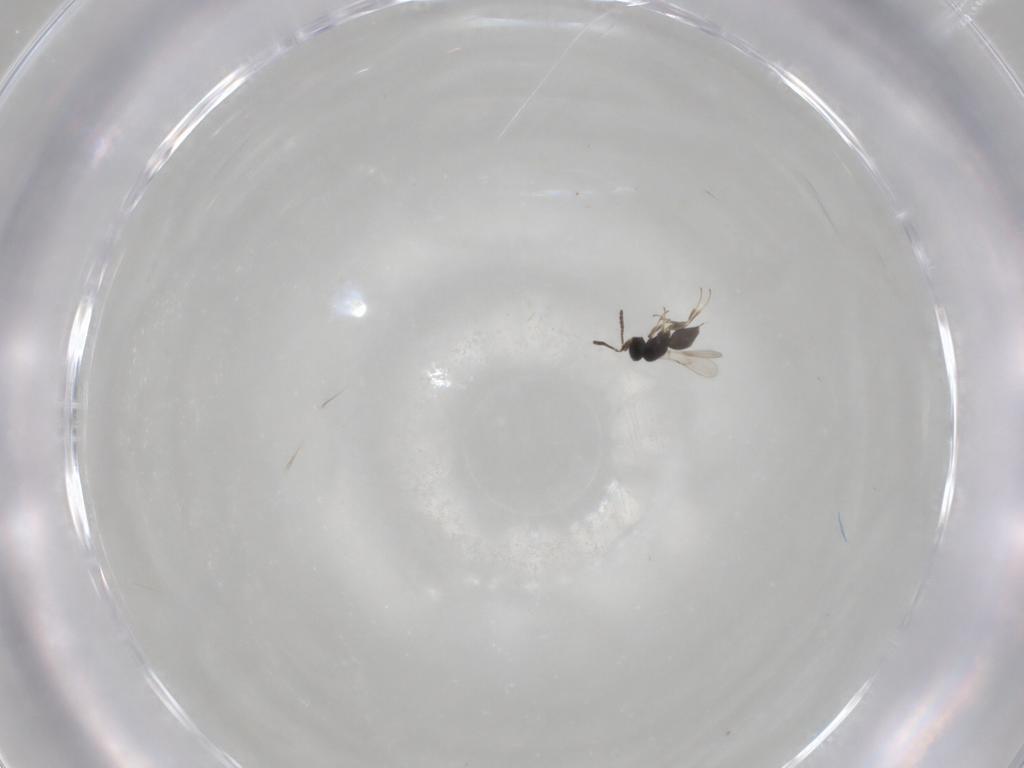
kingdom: Animalia
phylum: Arthropoda
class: Insecta
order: Hymenoptera
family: Scelionidae
